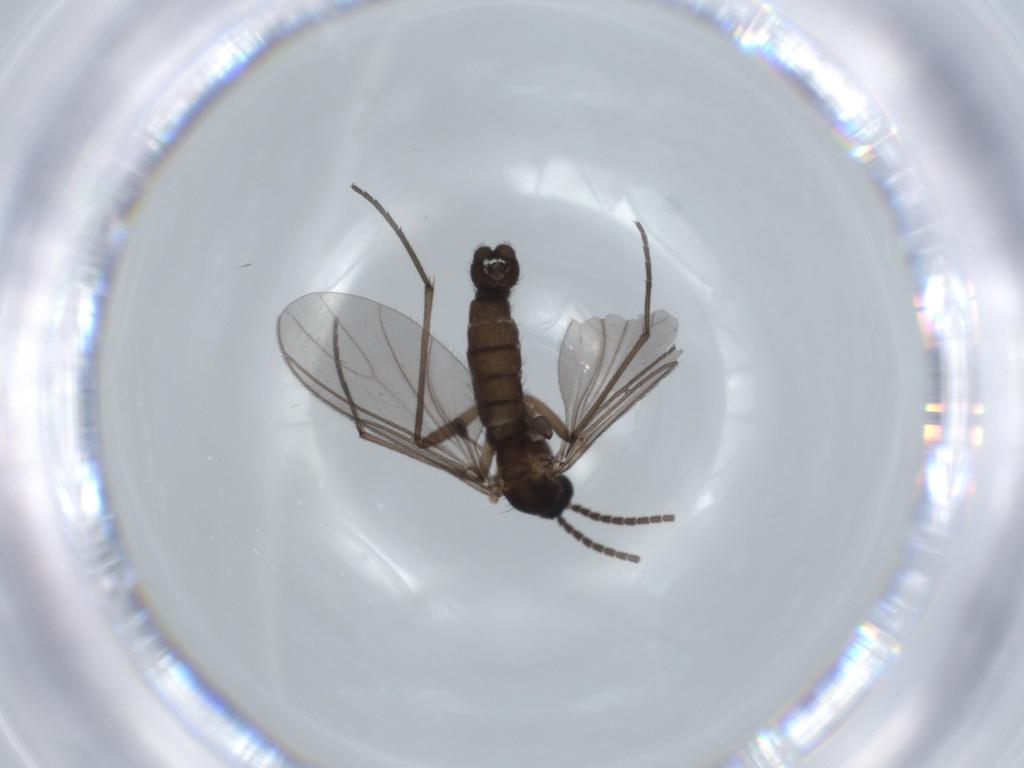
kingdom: Animalia
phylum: Arthropoda
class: Insecta
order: Diptera
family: Sciaridae
